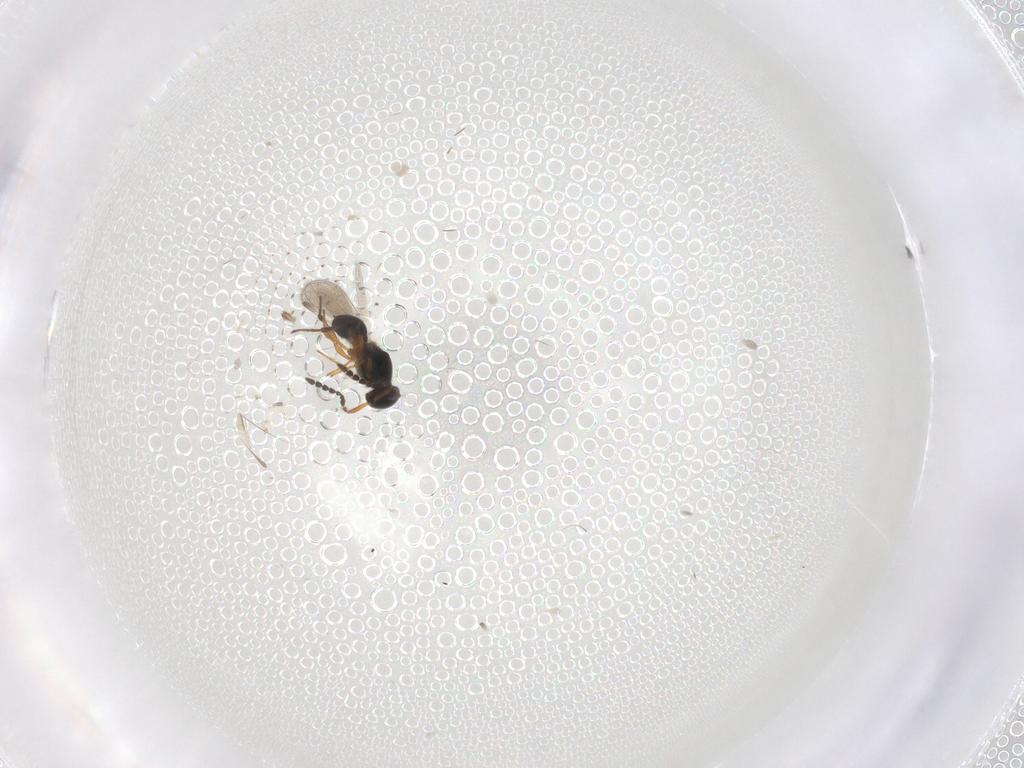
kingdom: Animalia
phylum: Arthropoda
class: Insecta
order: Hymenoptera
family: Platygastridae
